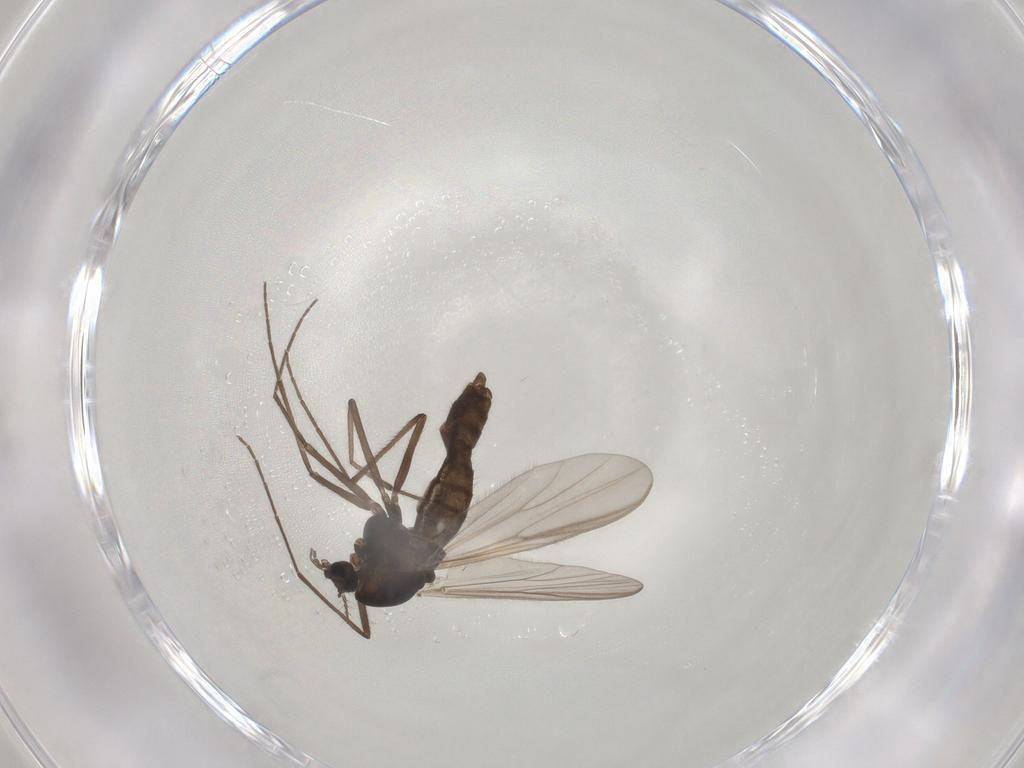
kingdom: Animalia
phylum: Arthropoda
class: Insecta
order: Diptera
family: Chironomidae
